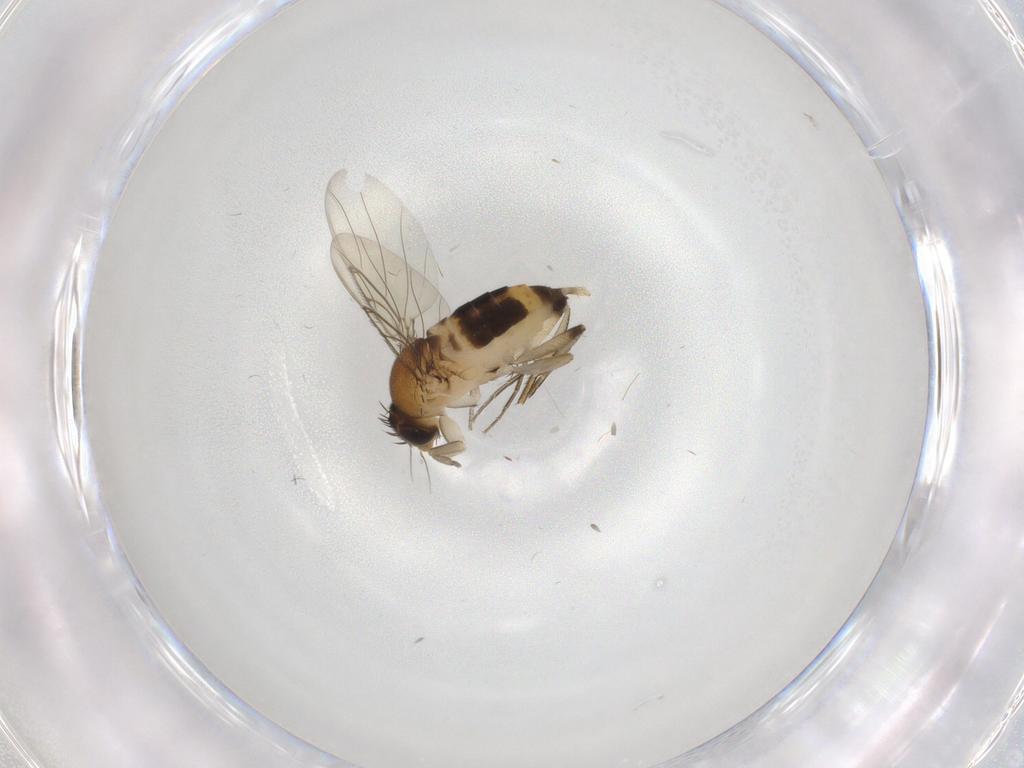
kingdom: Animalia
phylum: Arthropoda
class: Insecta
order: Diptera
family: Phoridae
